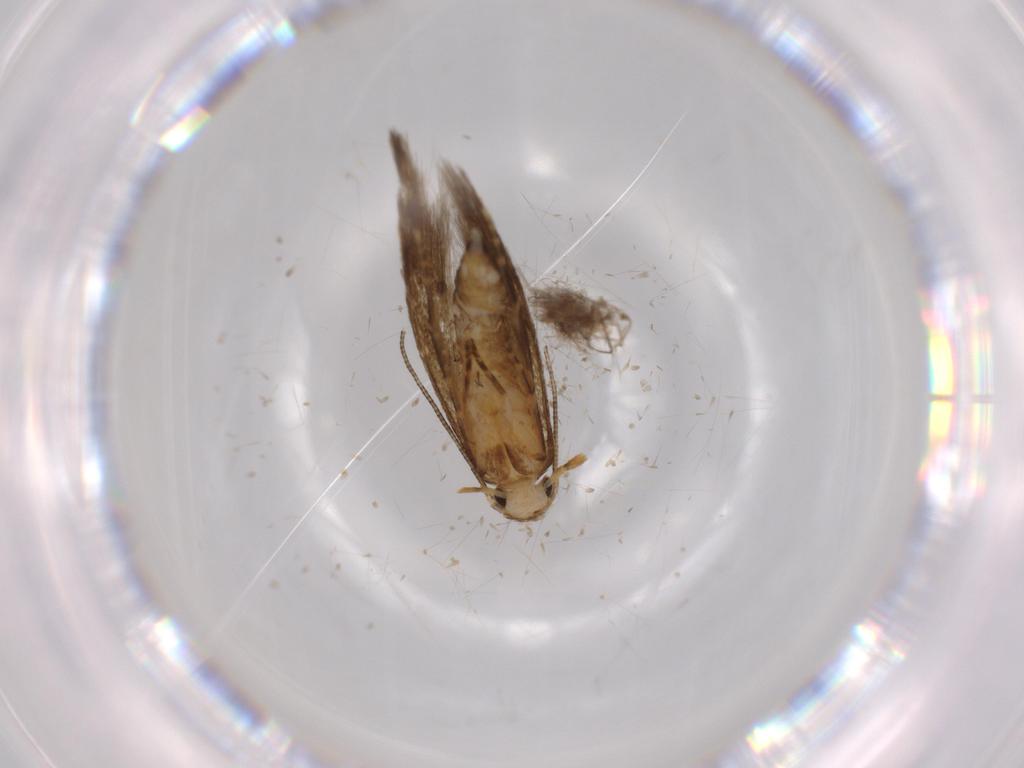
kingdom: Animalia
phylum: Arthropoda
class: Insecta
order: Lepidoptera
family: Tineidae
